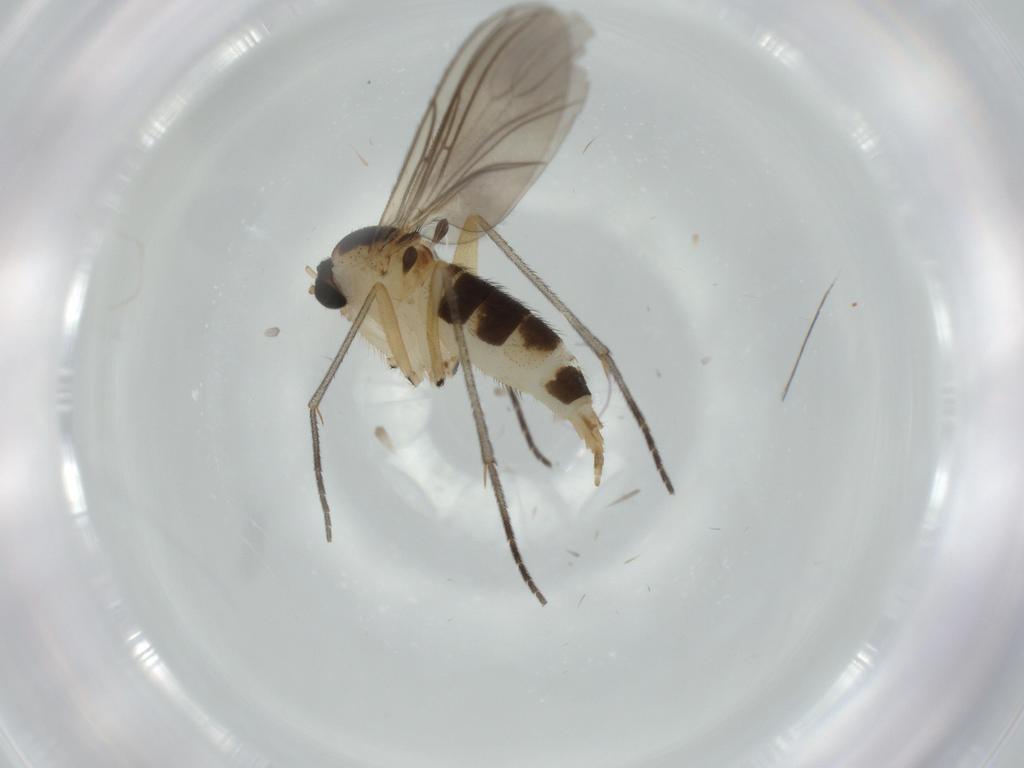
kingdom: Animalia
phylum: Arthropoda
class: Insecta
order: Diptera
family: Sciaridae
